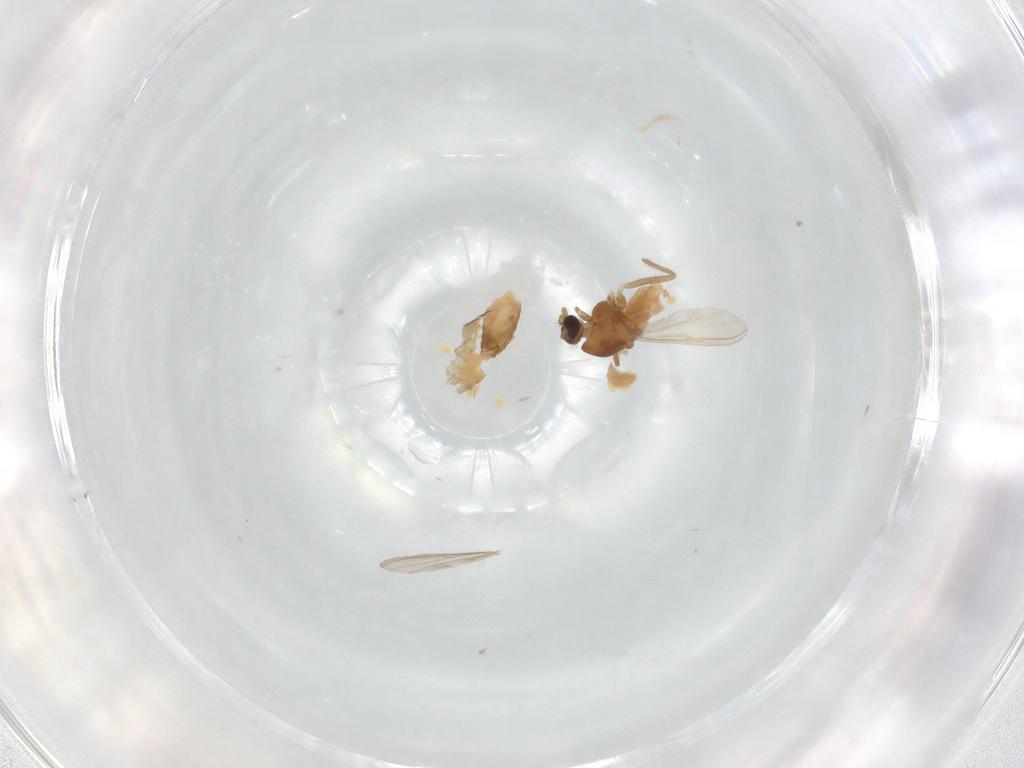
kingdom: Animalia
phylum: Arthropoda
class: Insecta
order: Diptera
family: Chironomidae
